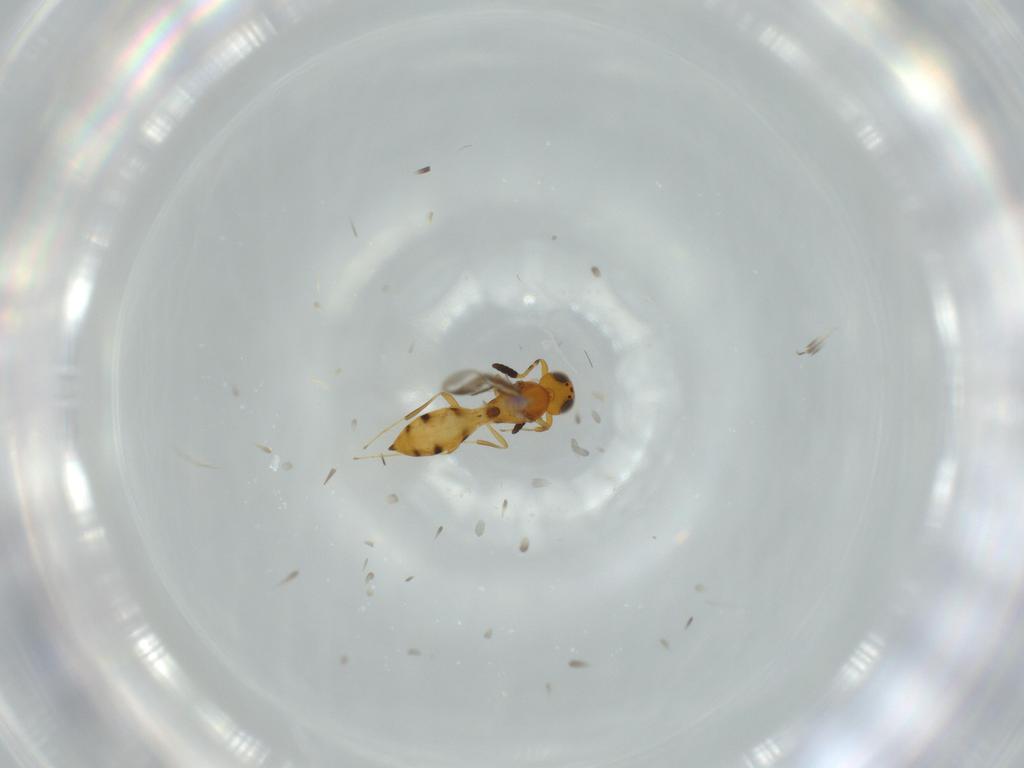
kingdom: Animalia
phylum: Arthropoda
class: Insecta
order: Hymenoptera
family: Scelionidae
